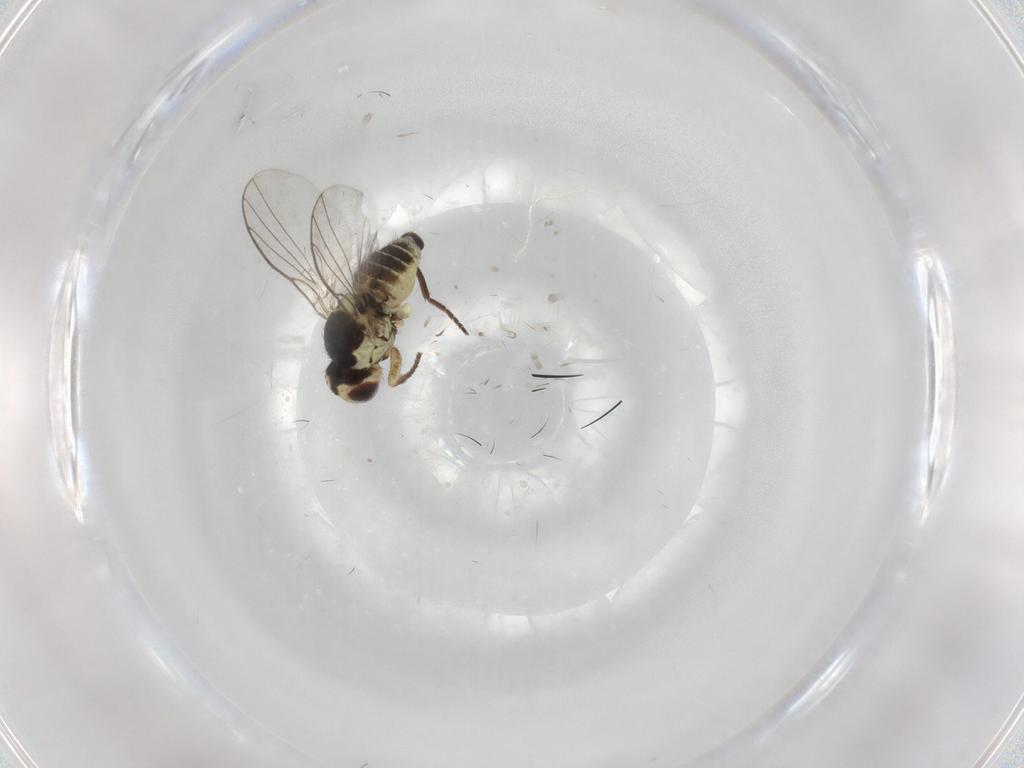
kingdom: Animalia
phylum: Arthropoda
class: Insecta
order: Diptera
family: Agromyzidae
